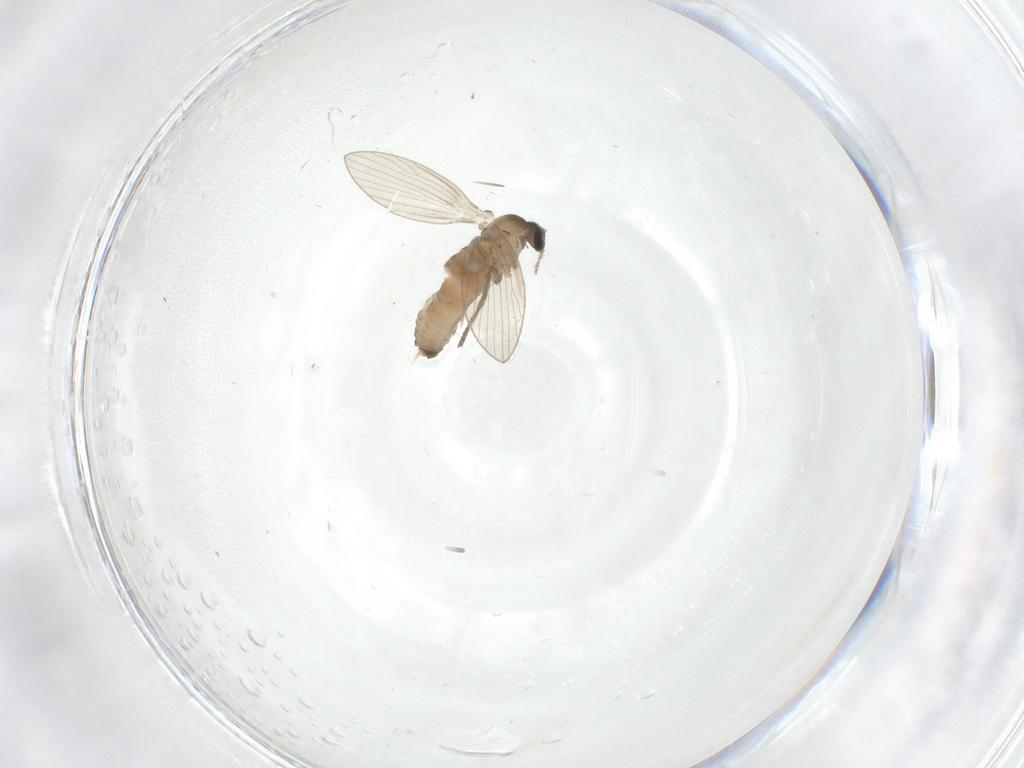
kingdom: Animalia
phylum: Arthropoda
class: Insecta
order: Diptera
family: Psychodidae
